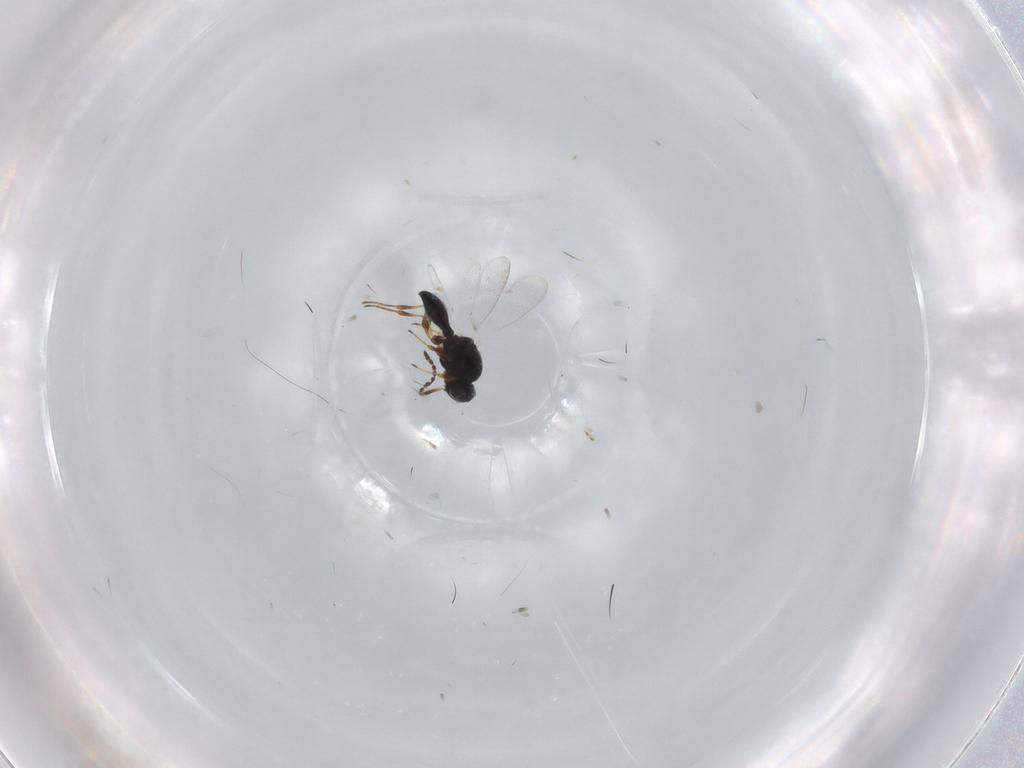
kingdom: Animalia
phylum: Arthropoda
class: Insecta
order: Hymenoptera
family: Platygastridae
